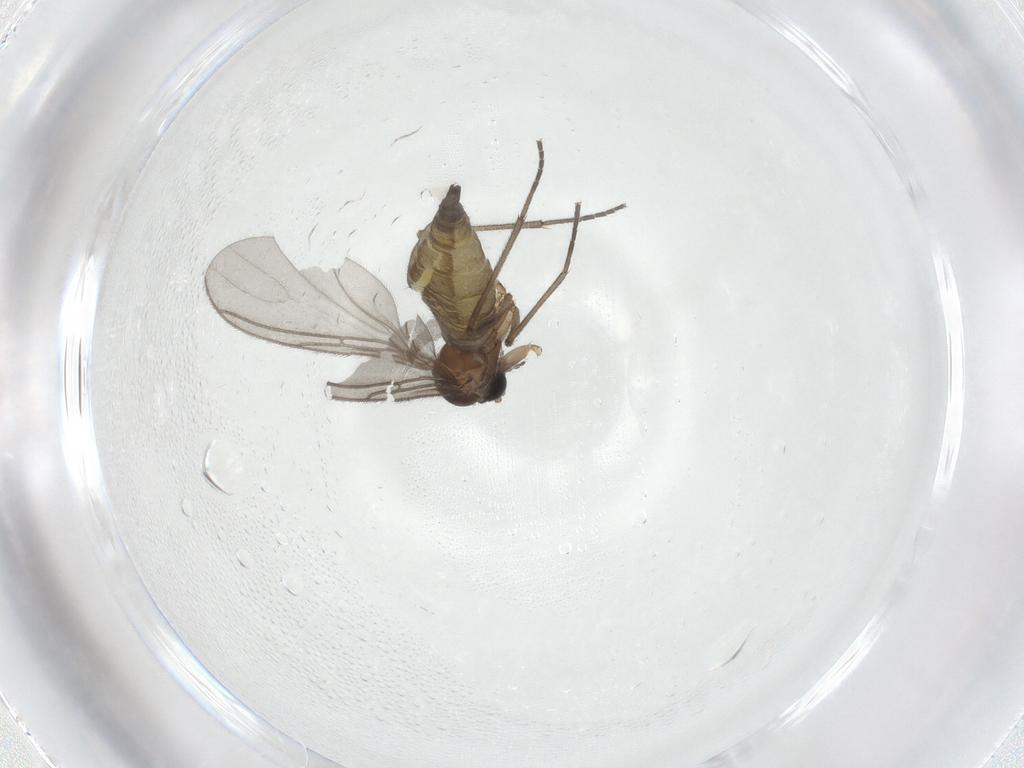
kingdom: Animalia
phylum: Arthropoda
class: Insecta
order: Diptera
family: Sciaridae
